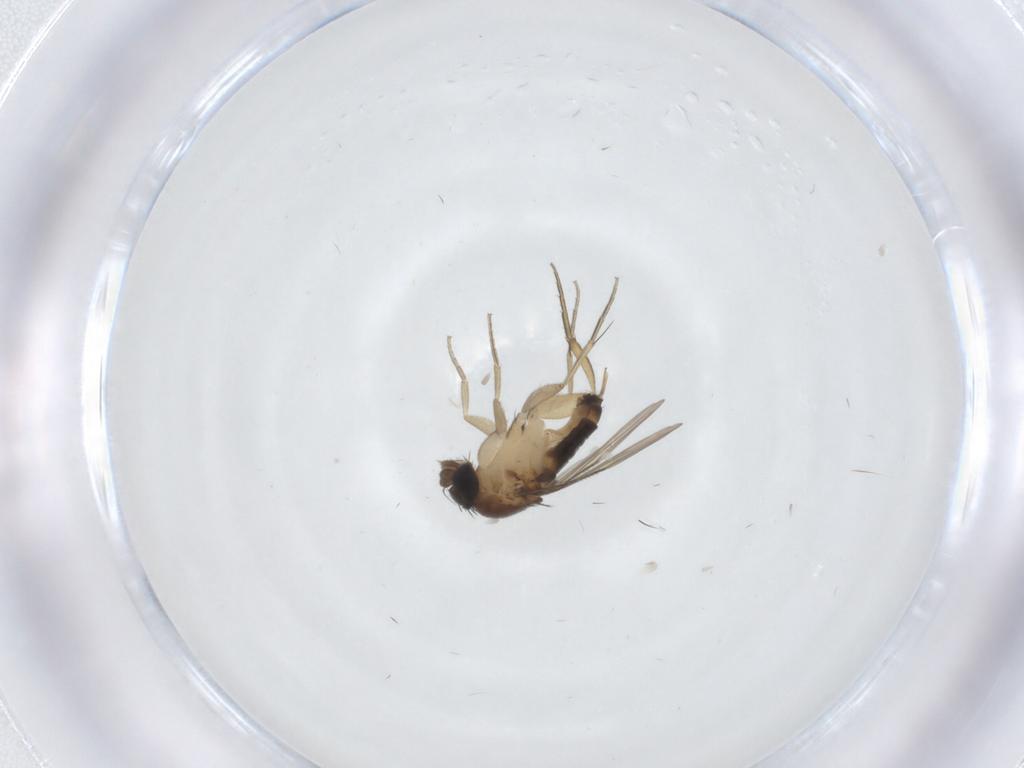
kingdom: Animalia
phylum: Arthropoda
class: Insecta
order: Diptera
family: Phoridae
